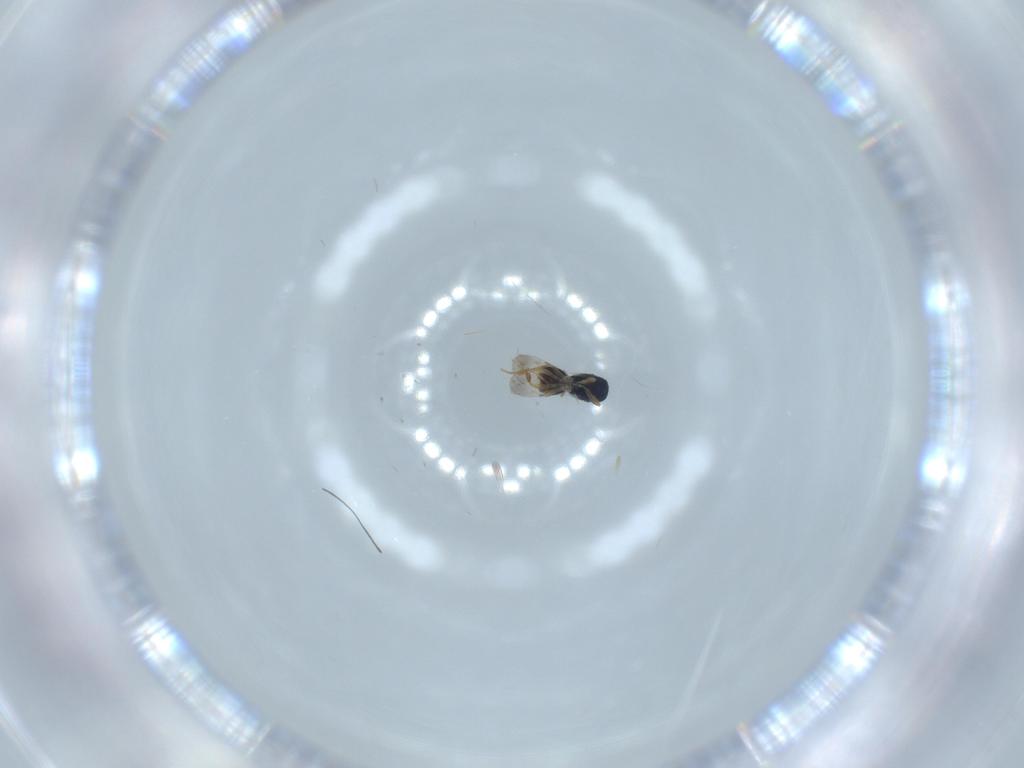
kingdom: Animalia
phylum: Arthropoda
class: Insecta
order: Hymenoptera
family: Ceraphronidae
